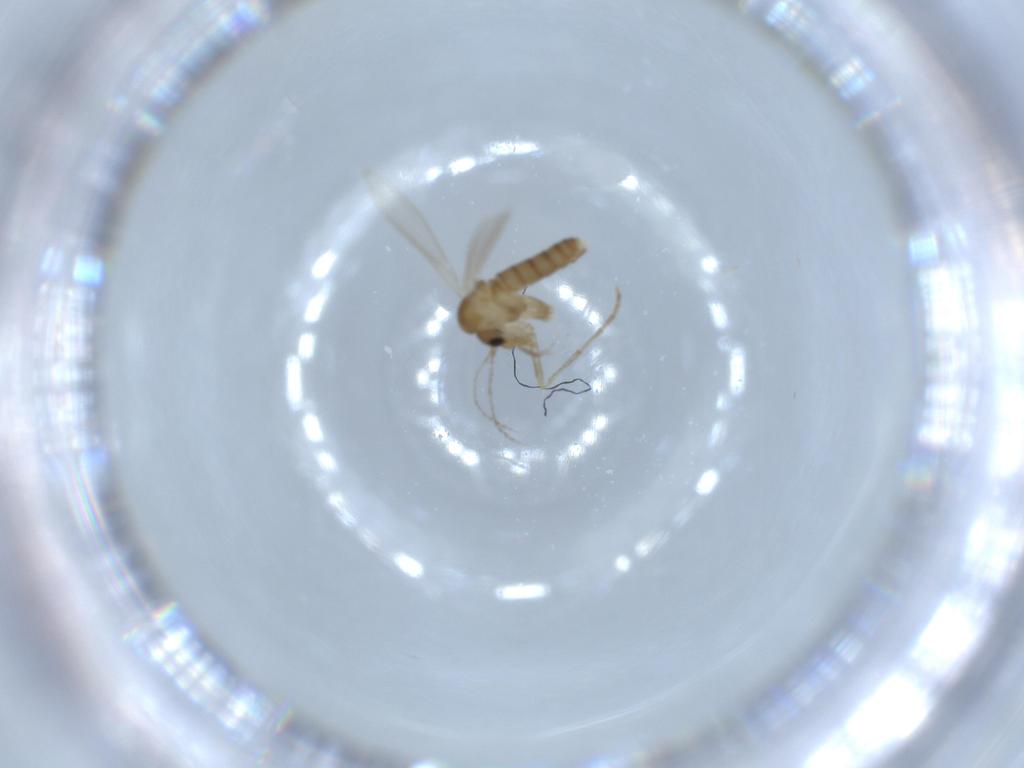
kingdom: Animalia
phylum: Arthropoda
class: Insecta
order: Diptera
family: Psychodidae
